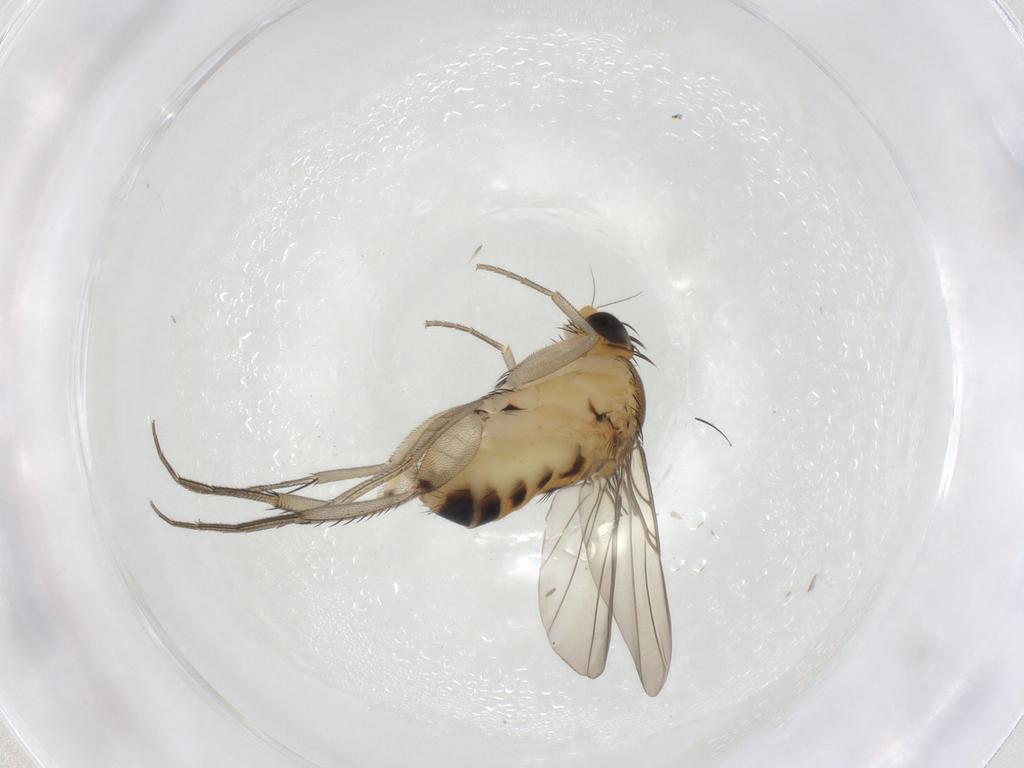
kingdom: Animalia
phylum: Arthropoda
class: Insecta
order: Diptera
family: Phoridae
